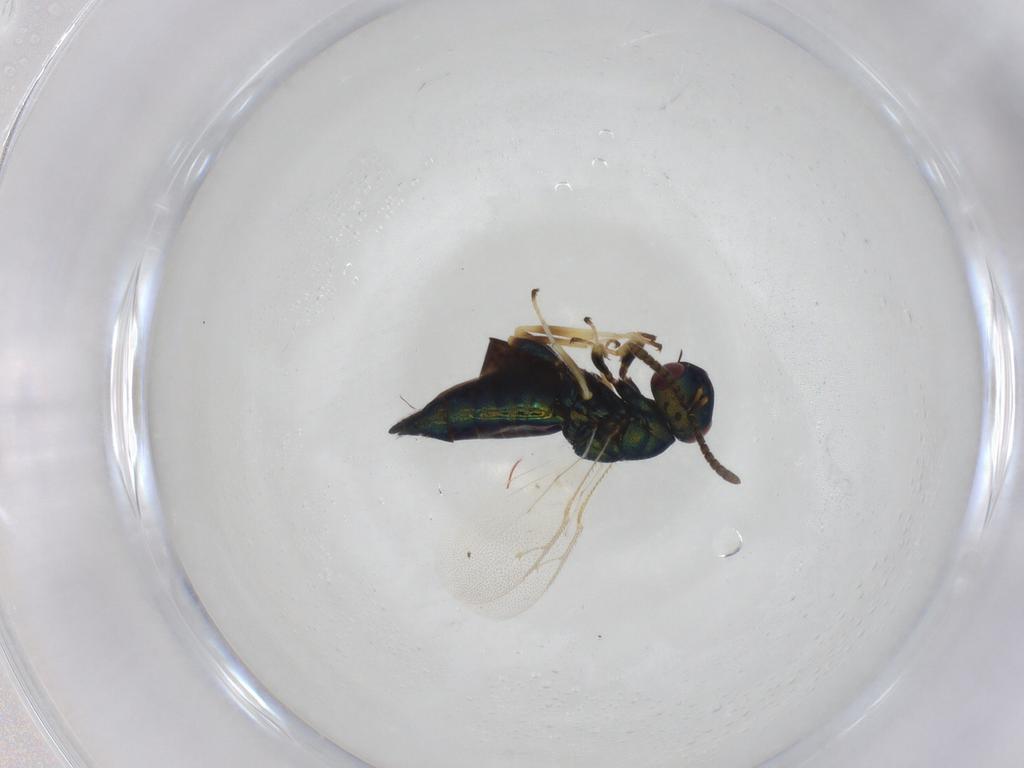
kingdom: Animalia
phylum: Arthropoda
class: Insecta
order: Hymenoptera
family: Pteromalidae
